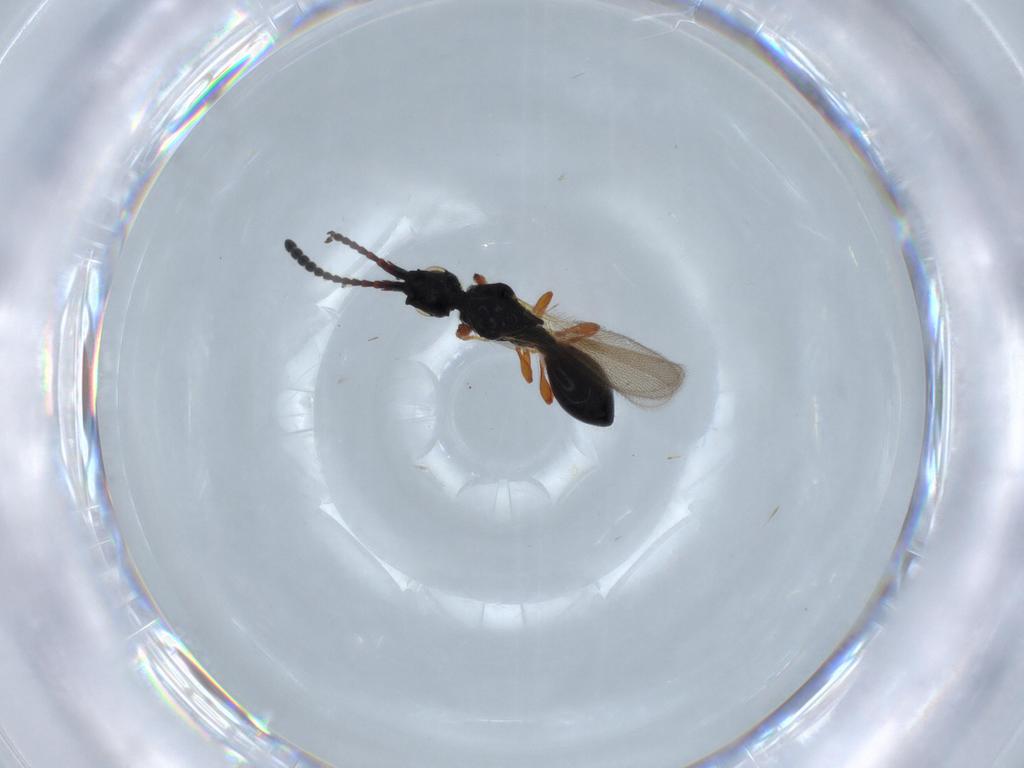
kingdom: Animalia
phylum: Arthropoda
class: Insecta
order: Hymenoptera
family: Diapriidae
